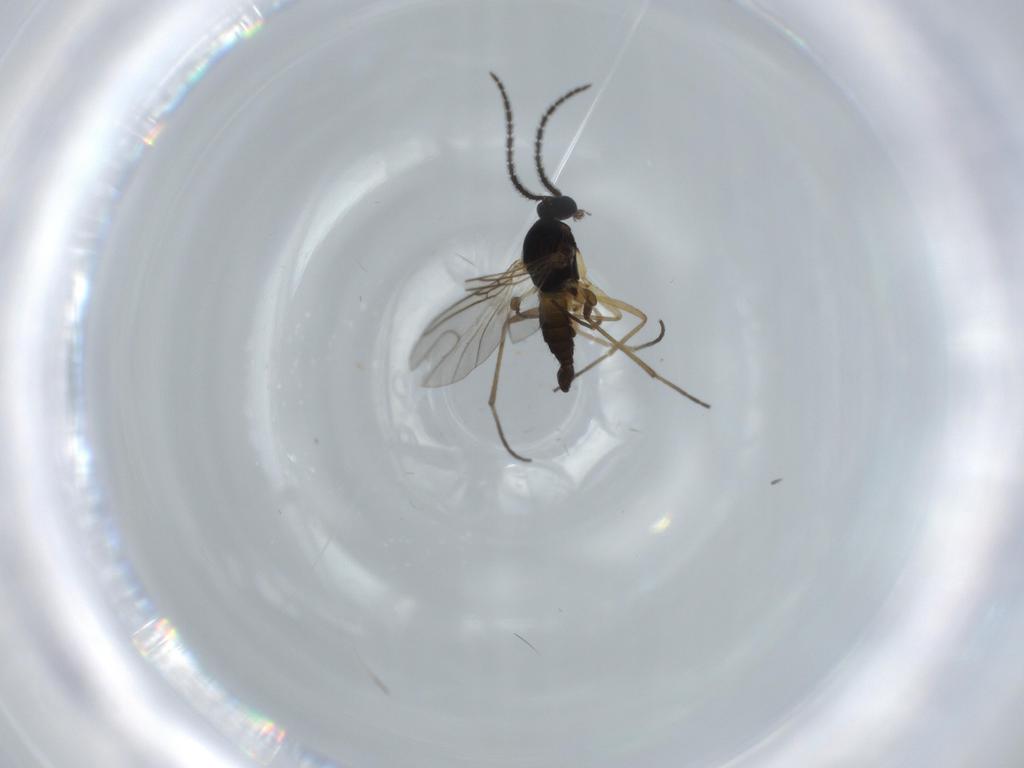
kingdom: Animalia
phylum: Arthropoda
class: Insecta
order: Diptera
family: Sciaridae
